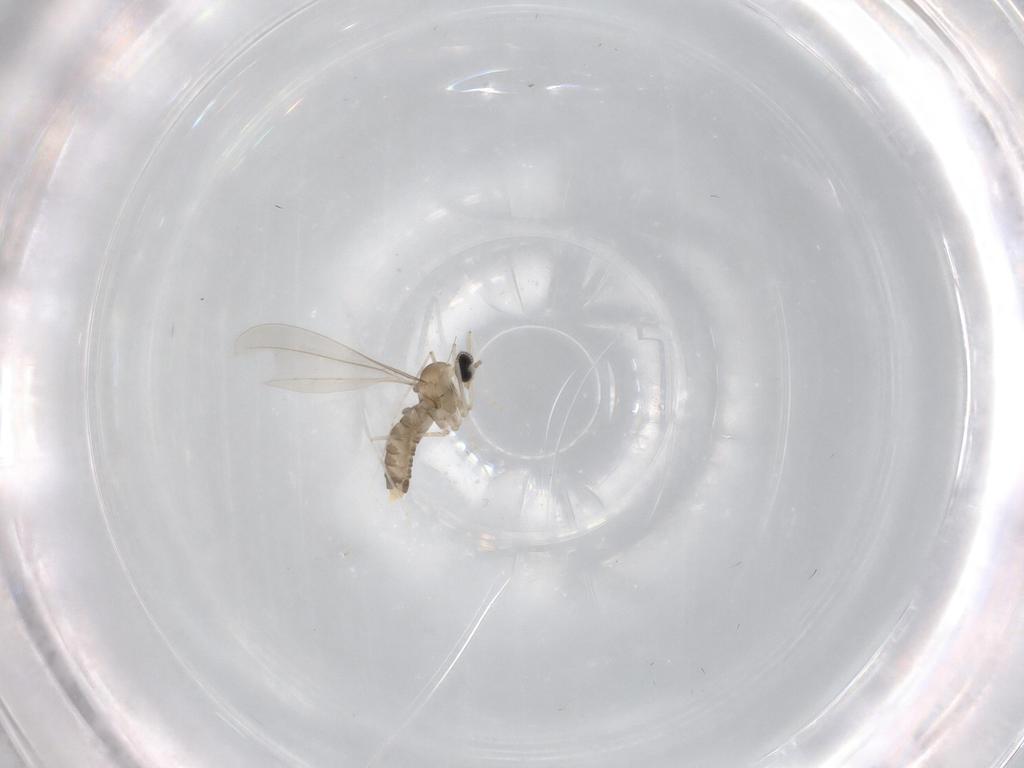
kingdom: Animalia
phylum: Arthropoda
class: Insecta
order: Diptera
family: Cecidomyiidae
